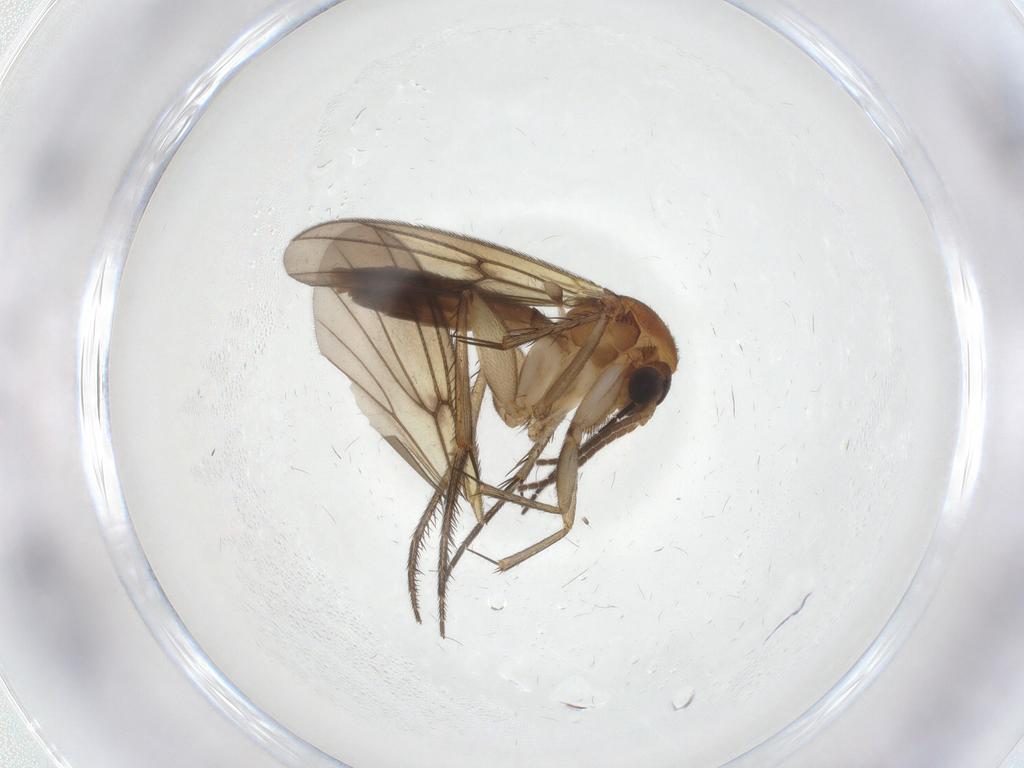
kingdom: Animalia
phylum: Arthropoda
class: Insecta
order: Diptera
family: Mycetophilidae
